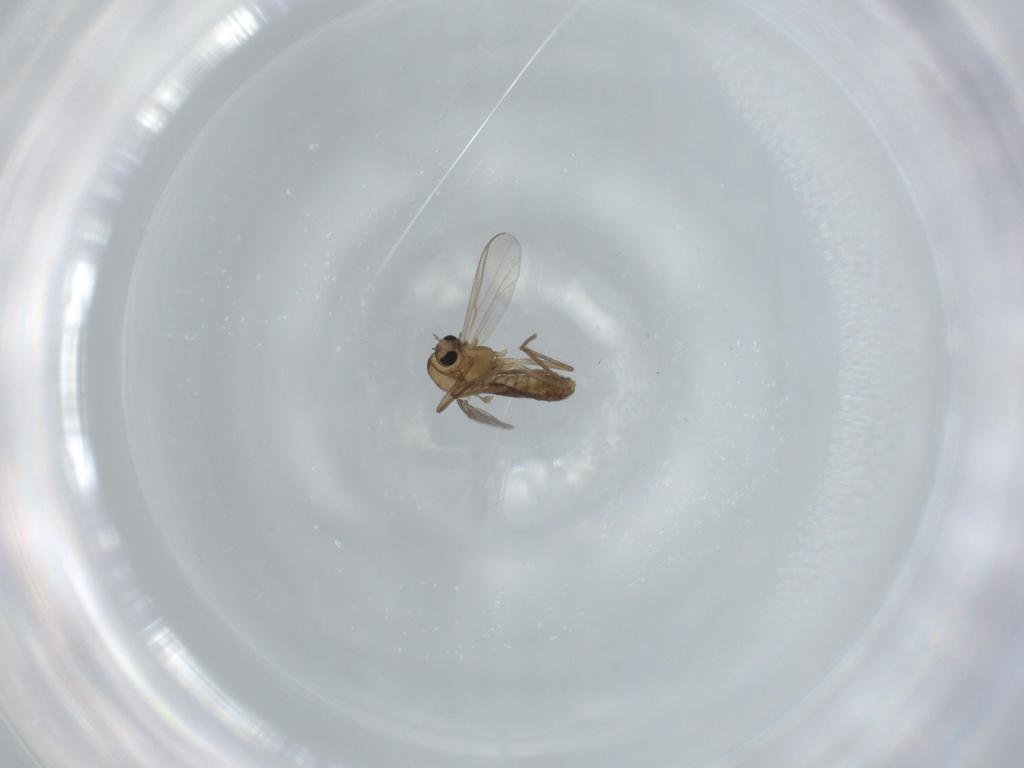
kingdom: Animalia
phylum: Arthropoda
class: Insecta
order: Diptera
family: Chironomidae
